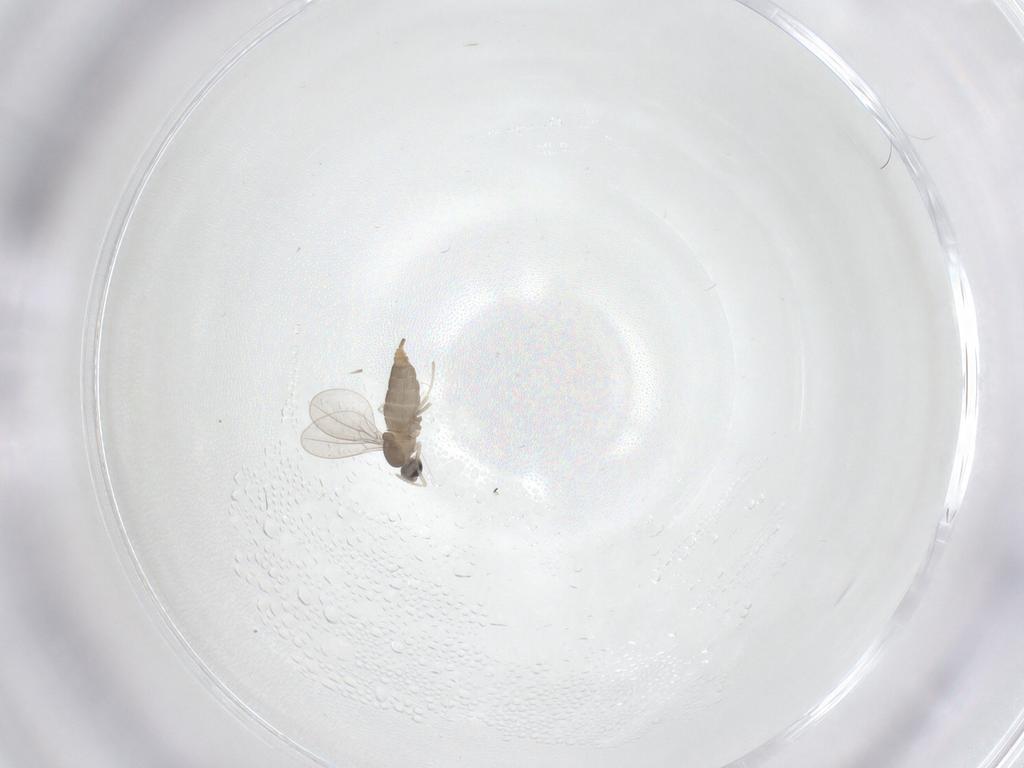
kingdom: Animalia
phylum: Arthropoda
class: Insecta
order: Diptera
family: Cecidomyiidae
